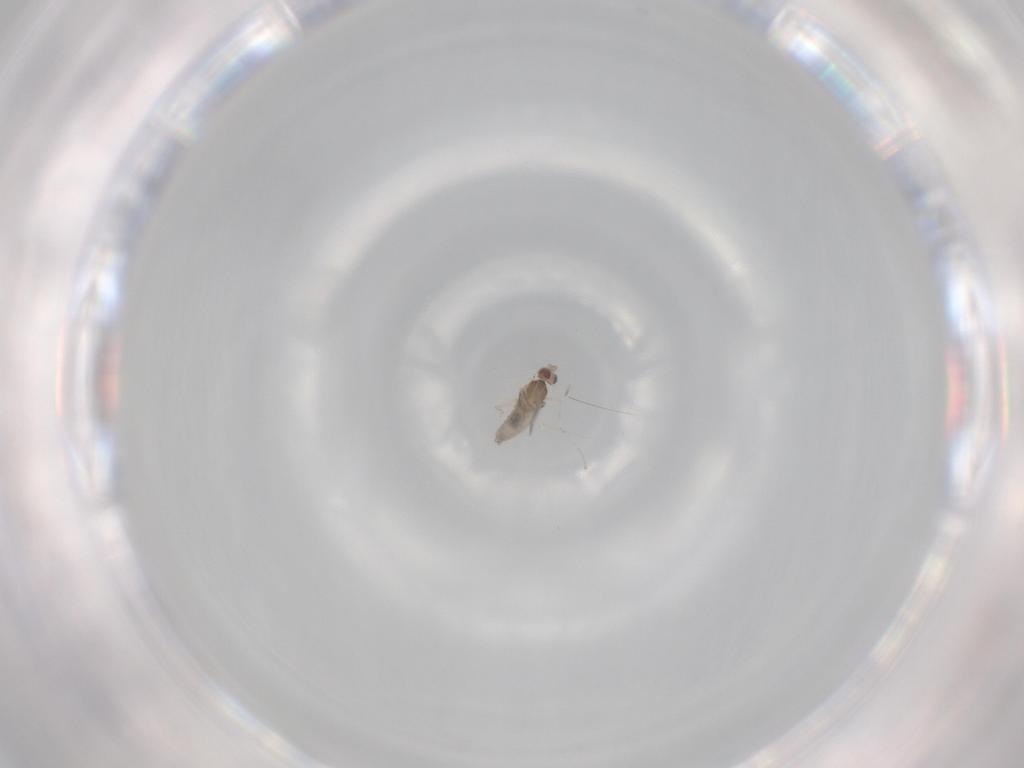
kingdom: Animalia
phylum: Arthropoda
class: Insecta
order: Diptera
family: Cecidomyiidae
